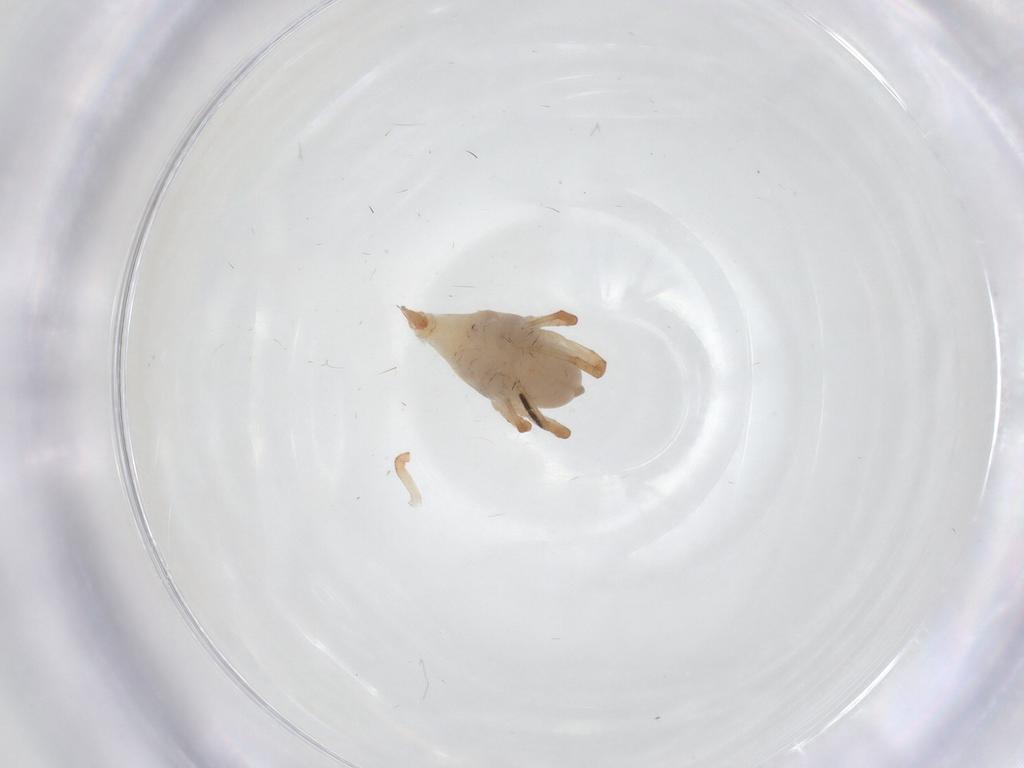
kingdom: Animalia
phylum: Arthropoda
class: Arachnida
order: Trombidiformes
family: Bdellidae
